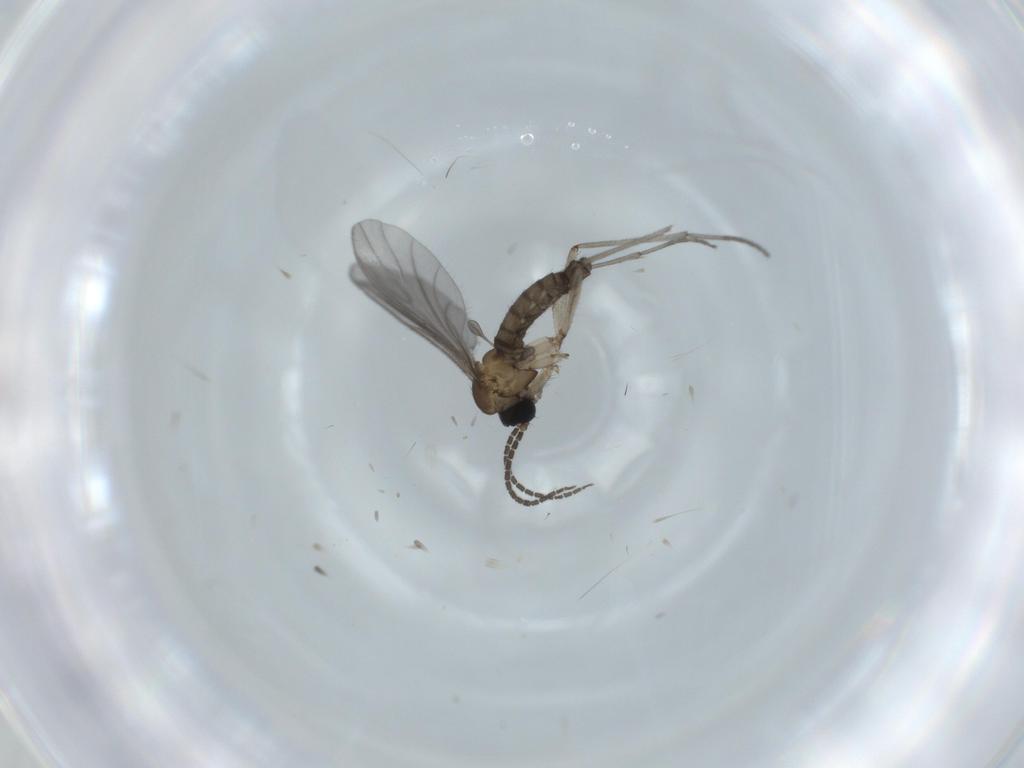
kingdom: Animalia
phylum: Arthropoda
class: Insecta
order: Diptera
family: Sciaridae
